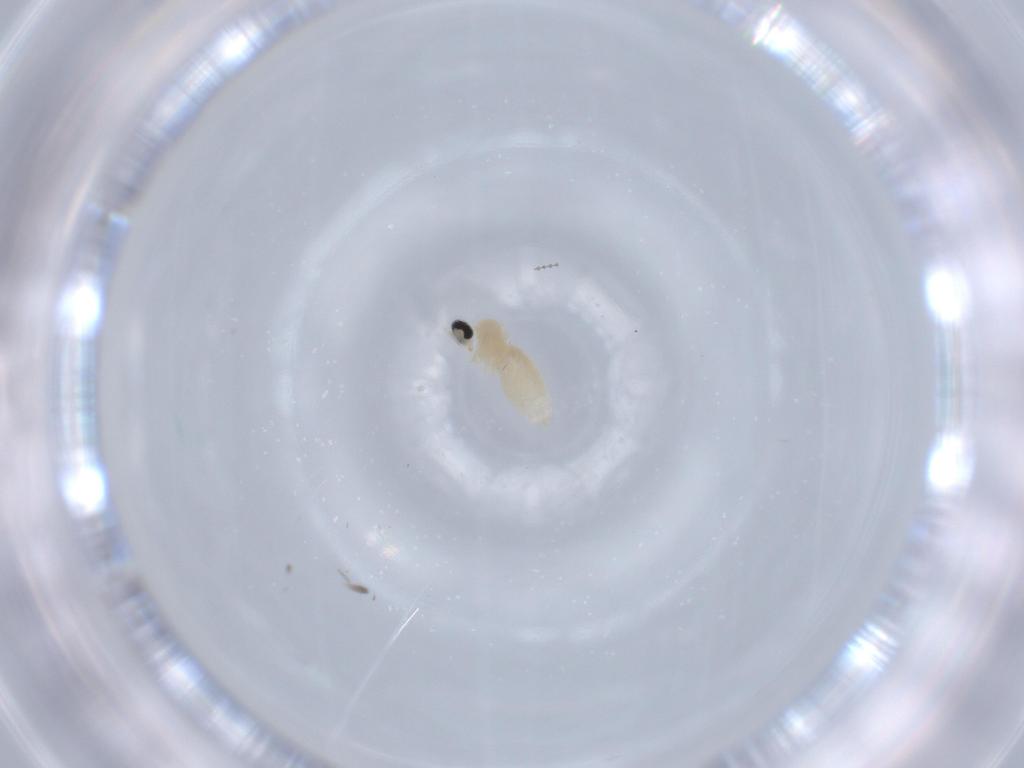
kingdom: Animalia
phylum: Arthropoda
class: Insecta
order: Diptera
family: Cecidomyiidae
